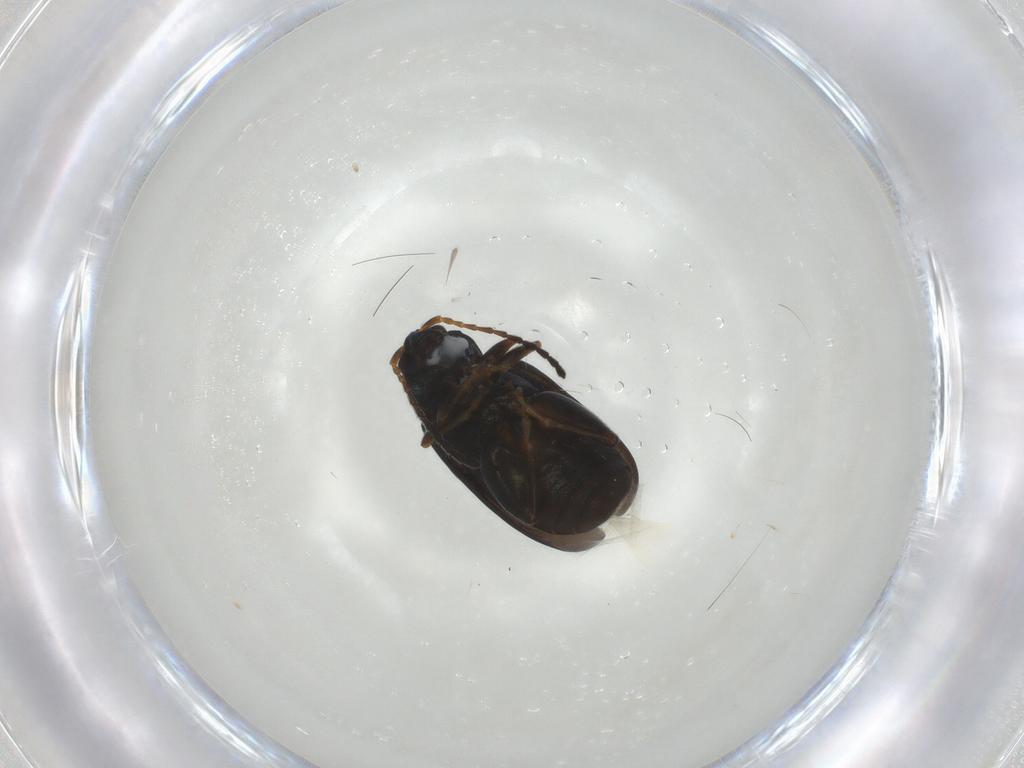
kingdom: Animalia
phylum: Arthropoda
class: Insecta
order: Coleoptera
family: Chrysomelidae
